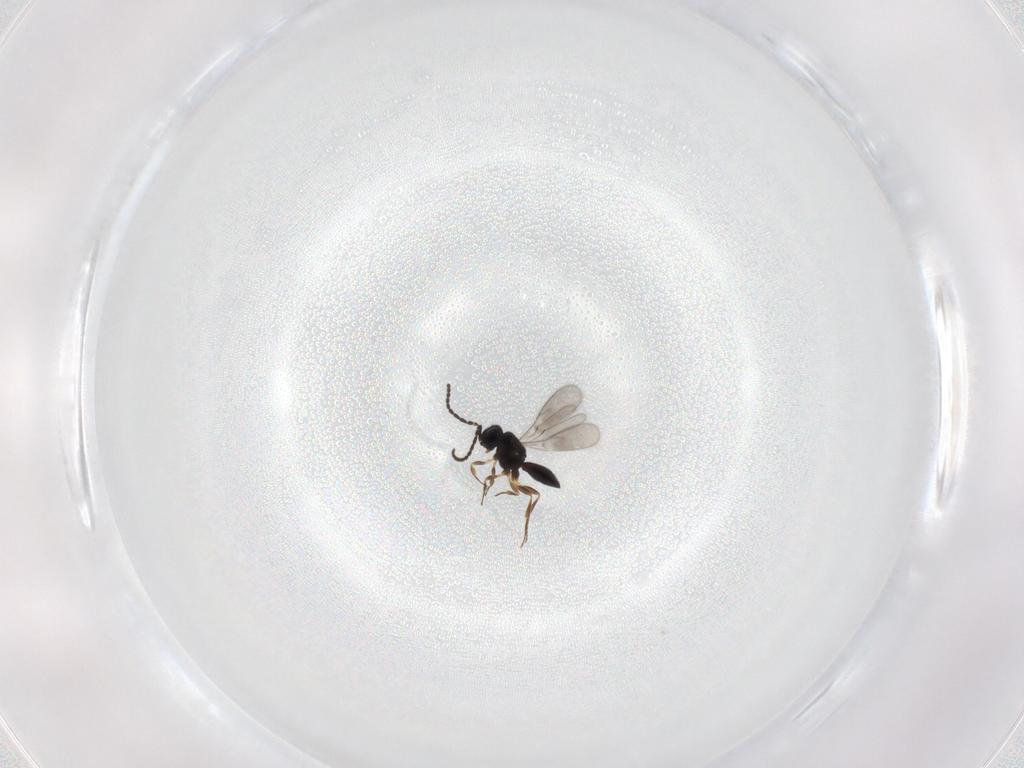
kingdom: Animalia
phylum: Arthropoda
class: Insecta
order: Hymenoptera
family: Scelionidae
